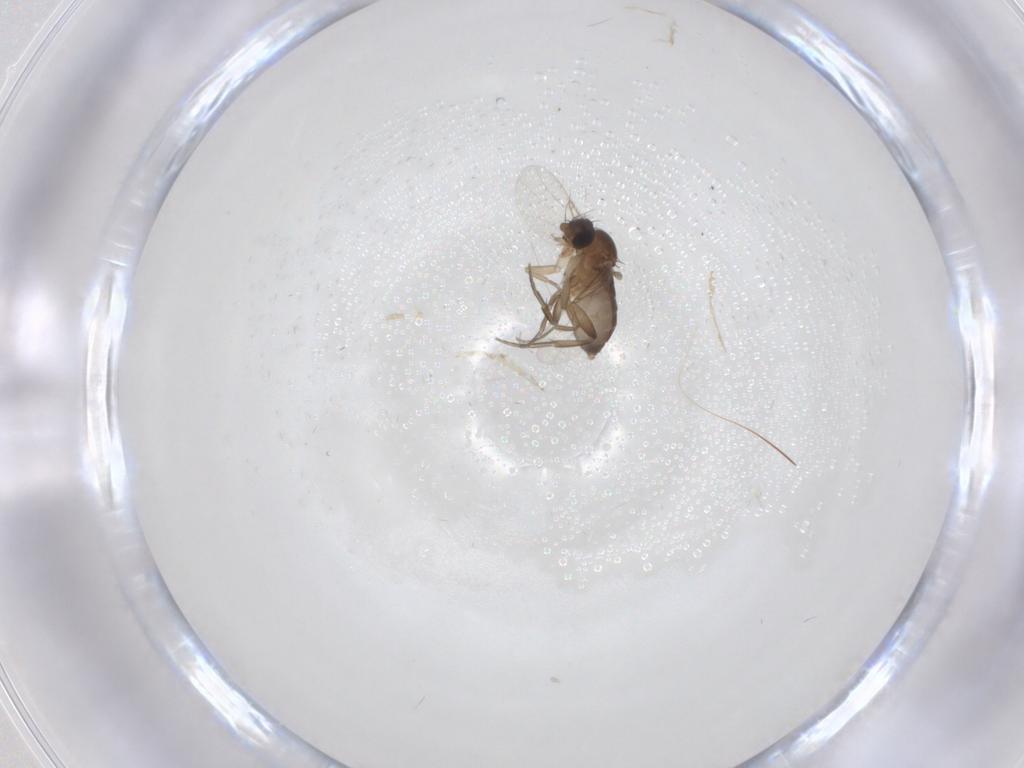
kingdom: Animalia
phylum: Arthropoda
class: Insecta
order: Diptera
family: Phoridae
